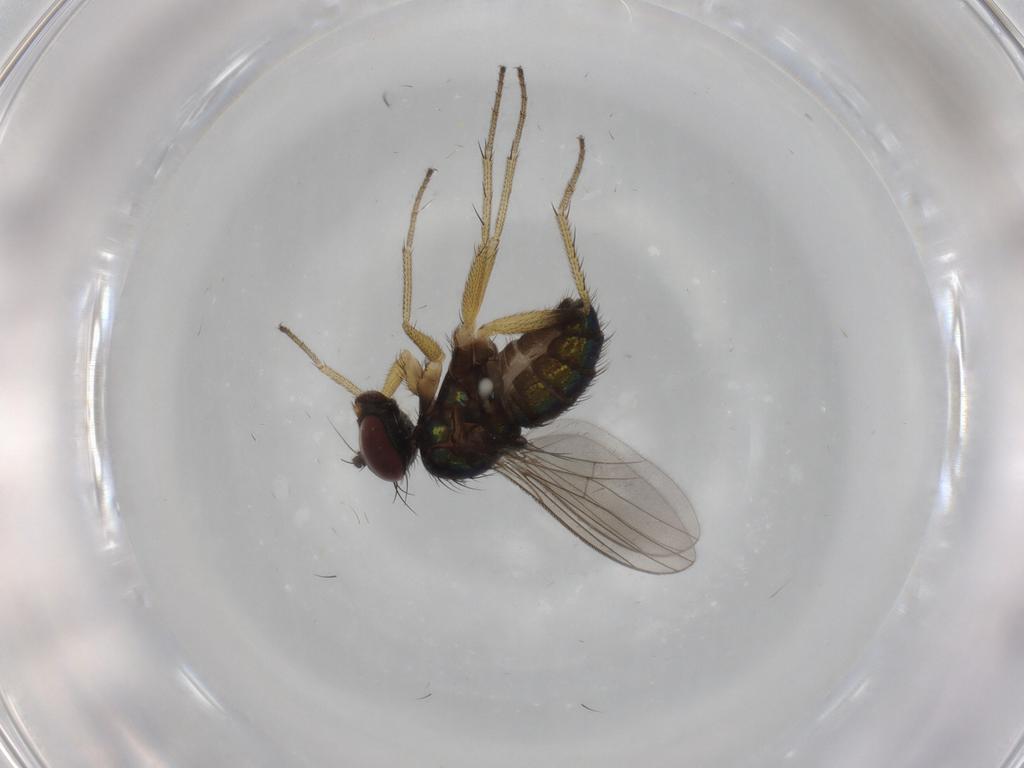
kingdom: Animalia
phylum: Arthropoda
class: Insecta
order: Diptera
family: Dolichopodidae
